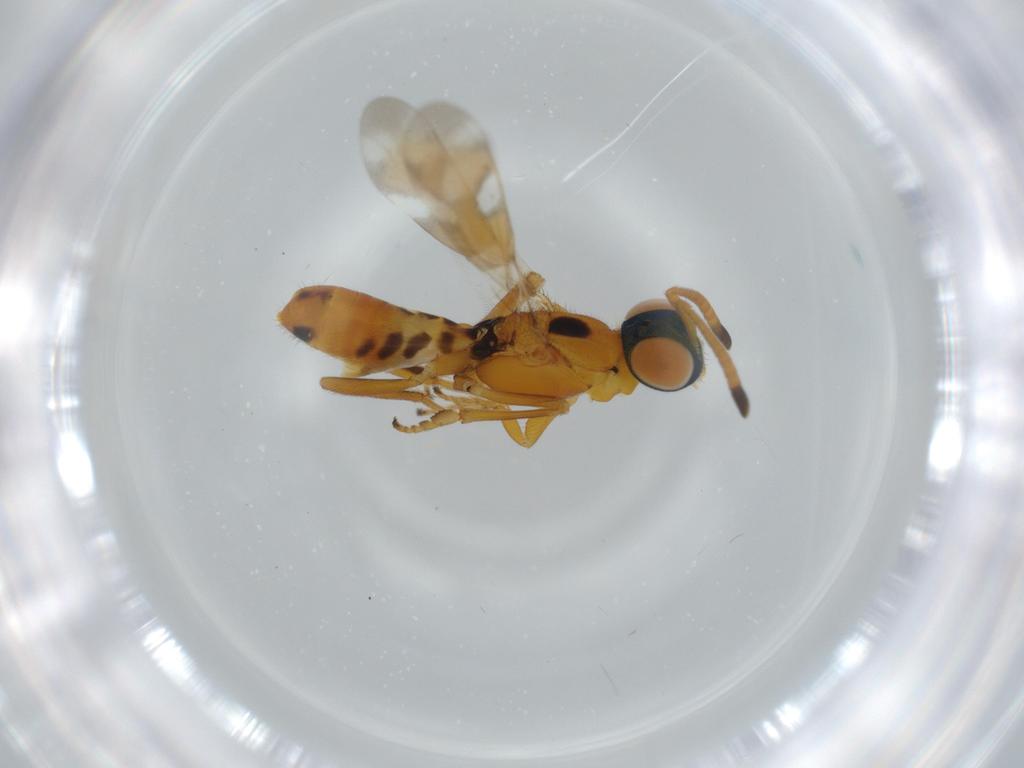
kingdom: Animalia
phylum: Arthropoda
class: Insecta
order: Hymenoptera
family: Eupelmidae
